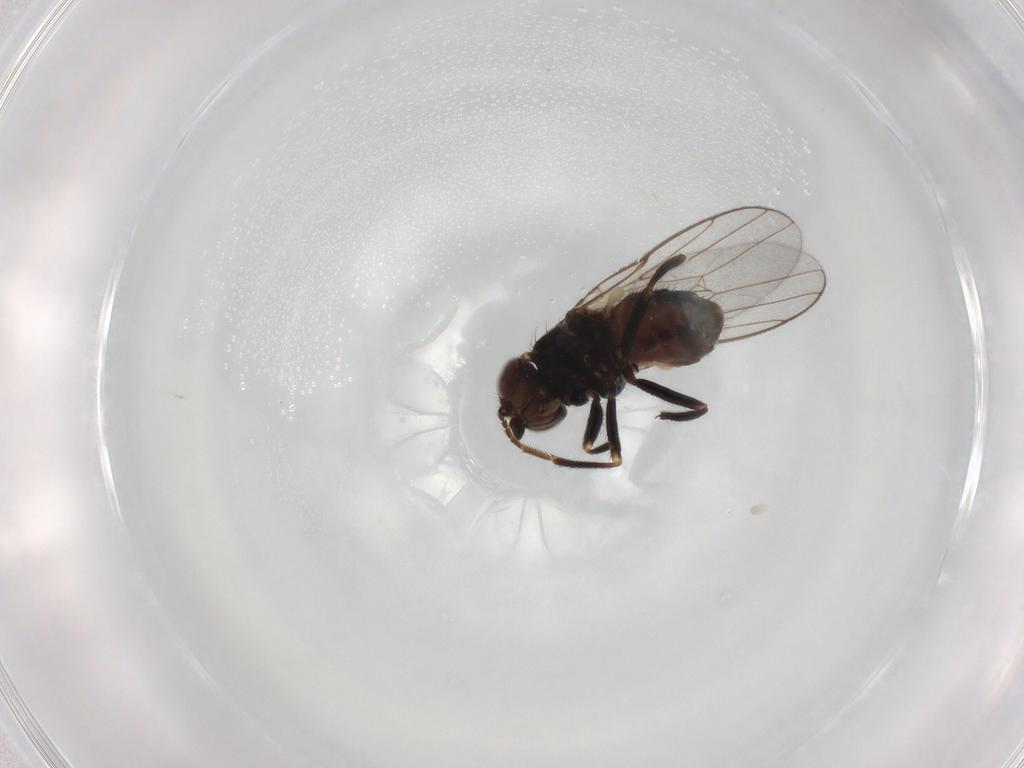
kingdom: Animalia
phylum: Arthropoda
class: Insecta
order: Diptera
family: Chloropidae
